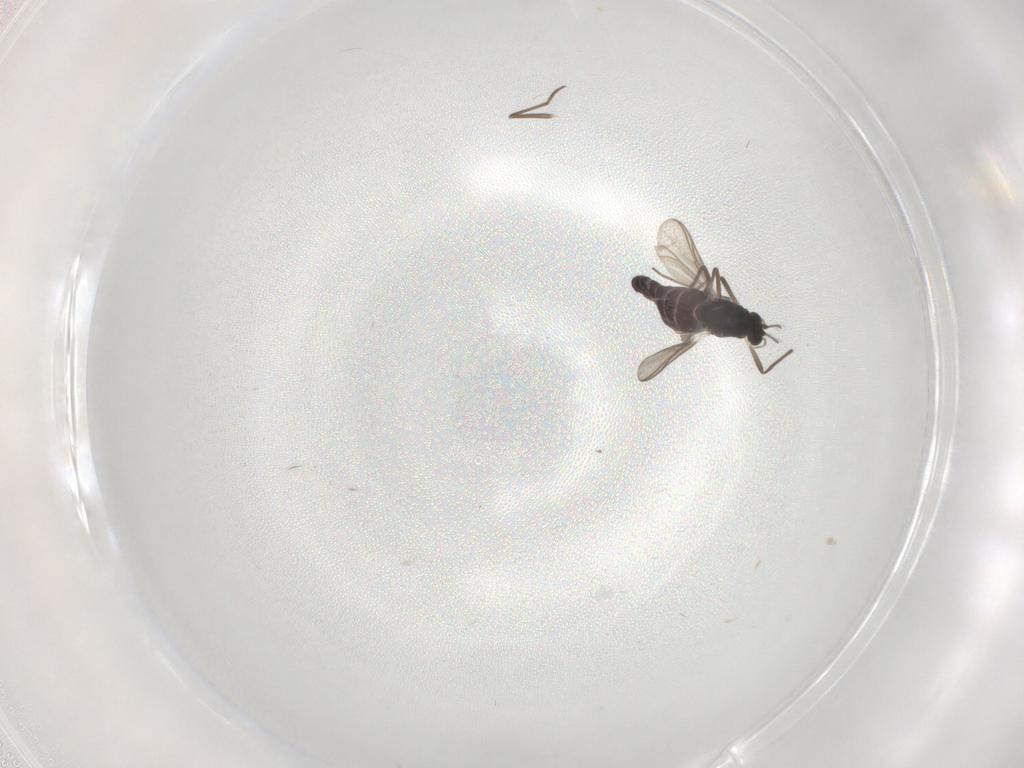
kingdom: Animalia
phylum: Arthropoda
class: Insecta
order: Diptera
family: Chironomidae
